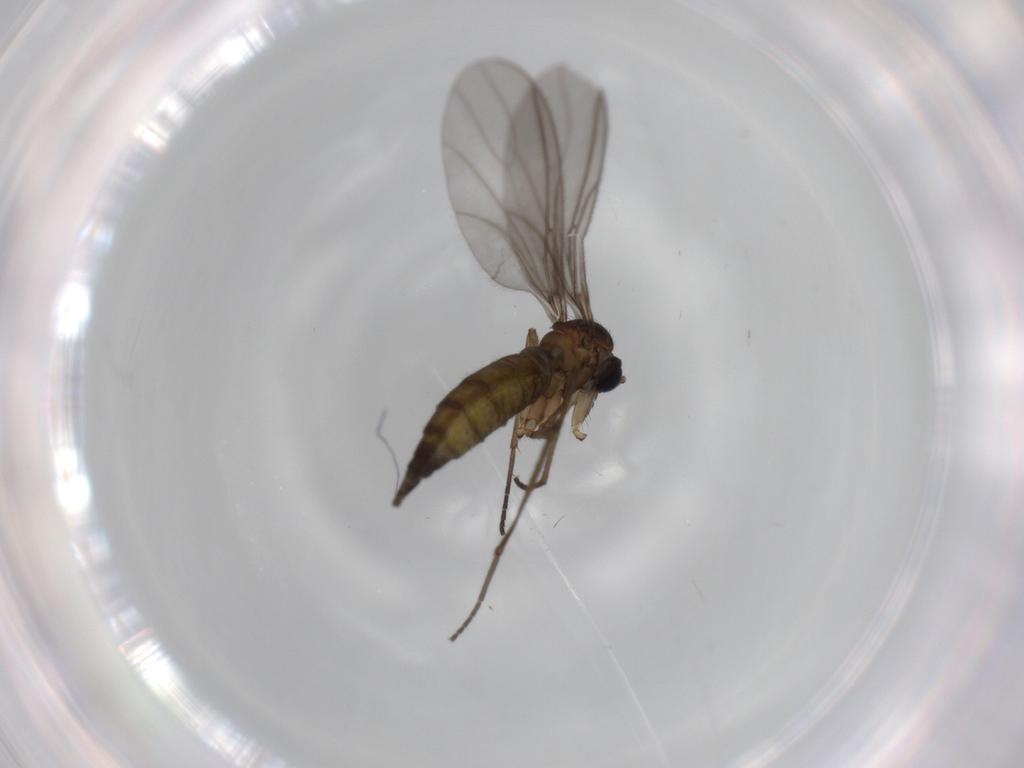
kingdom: Animalia
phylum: Arthropoda
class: Insecta
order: Diptera
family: Sciaridae
